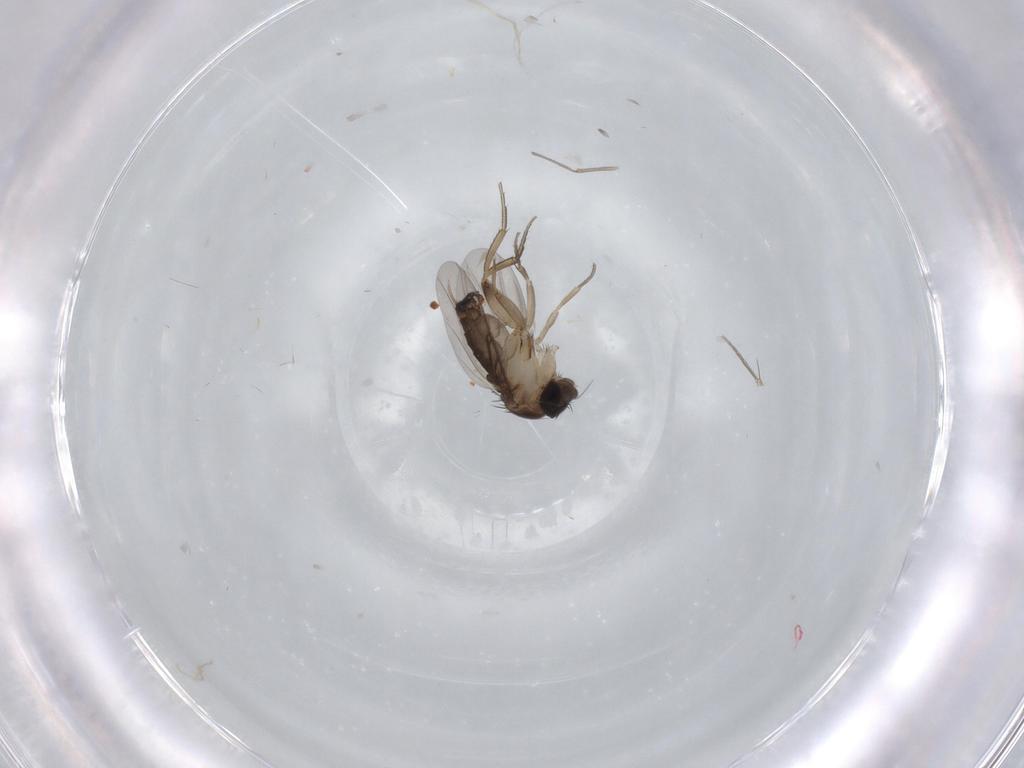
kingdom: Animalia
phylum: Arthropoda
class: Insecta
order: Diptera
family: Phoridae
